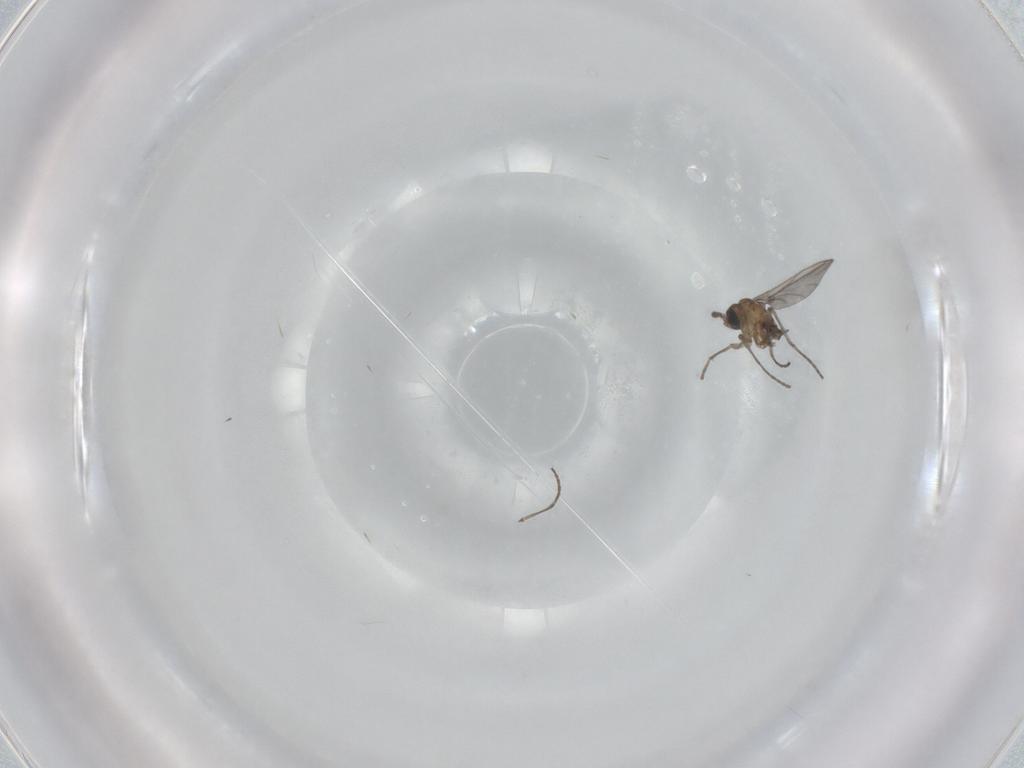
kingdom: Animalia
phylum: Arthropoda
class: Insecta
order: Diptera
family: Sciaridae
